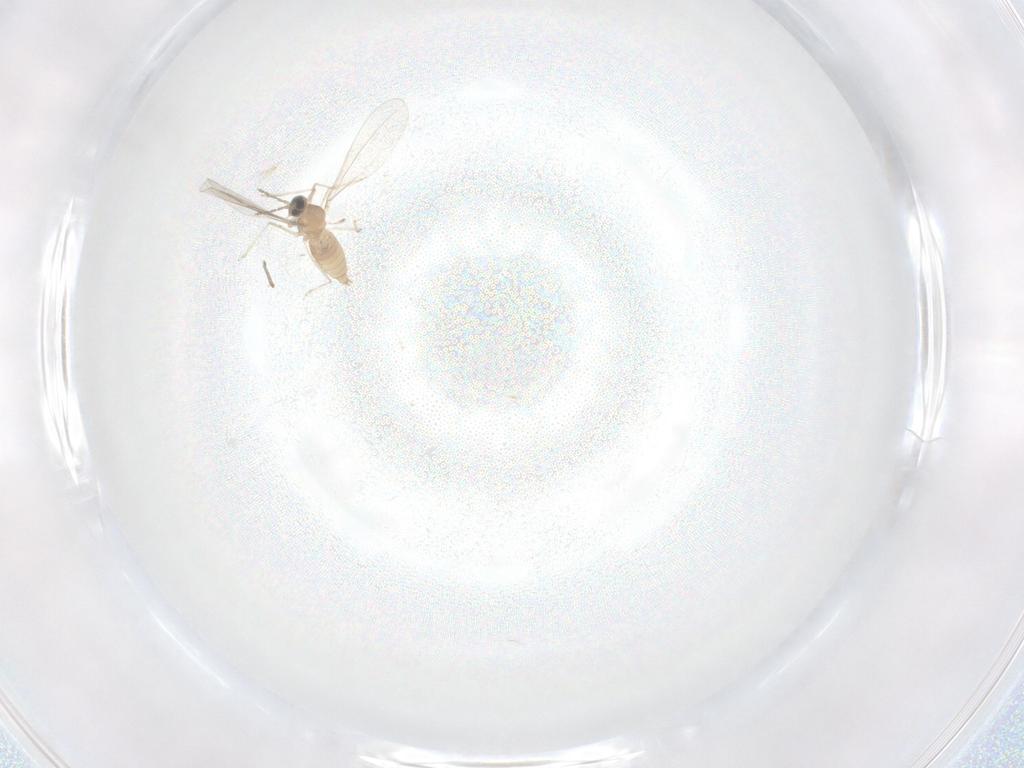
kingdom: Animalia
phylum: Arthropoda
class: Insecta
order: Diptera
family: Cecidomyiidae
